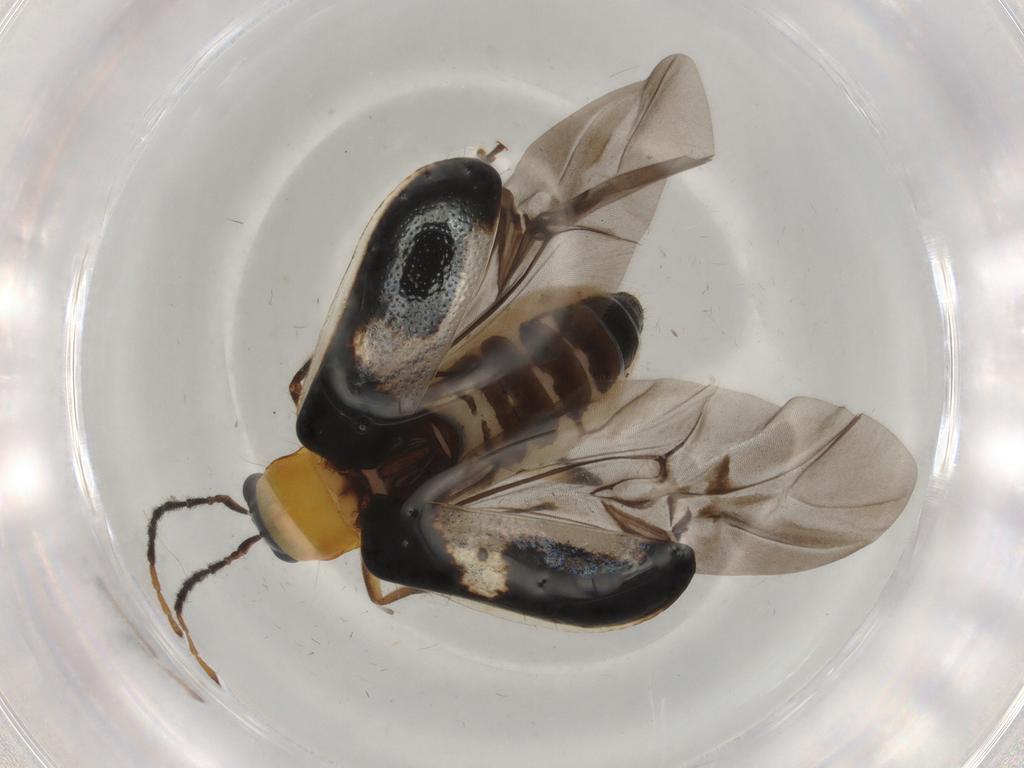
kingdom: Animalia
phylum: Arthropoda
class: Insecta
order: Coleoptera
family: Chrysomelidae
